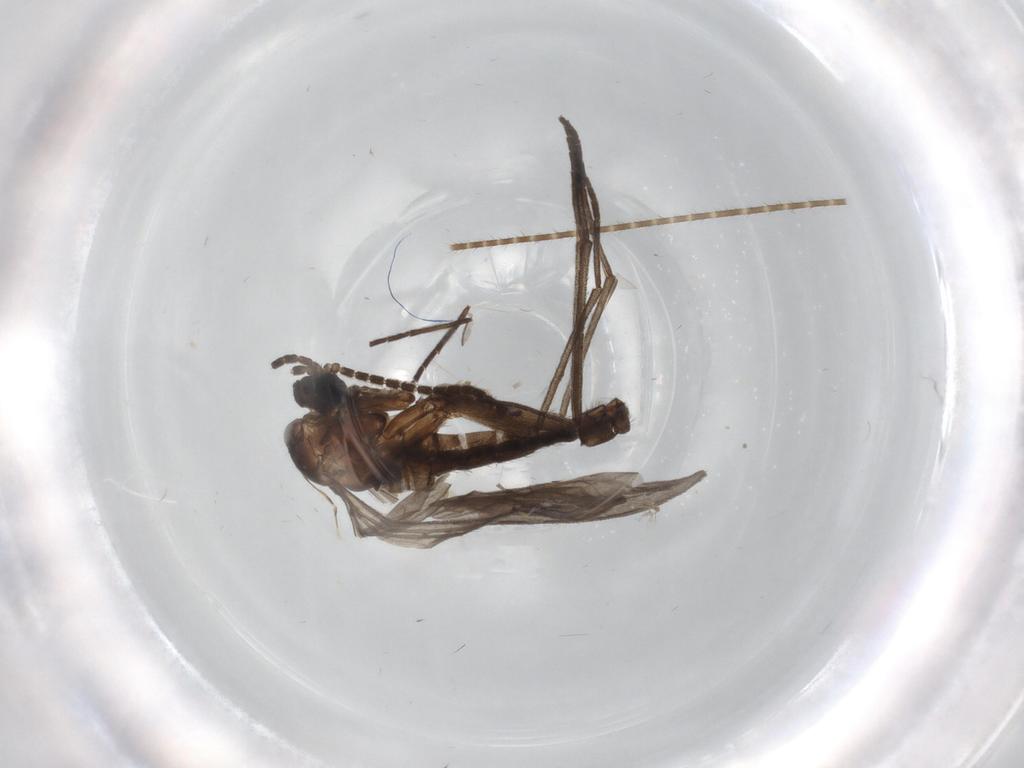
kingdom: Animalia
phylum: Arthropoda
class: Insecta
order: Diptera
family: Sciaridae
